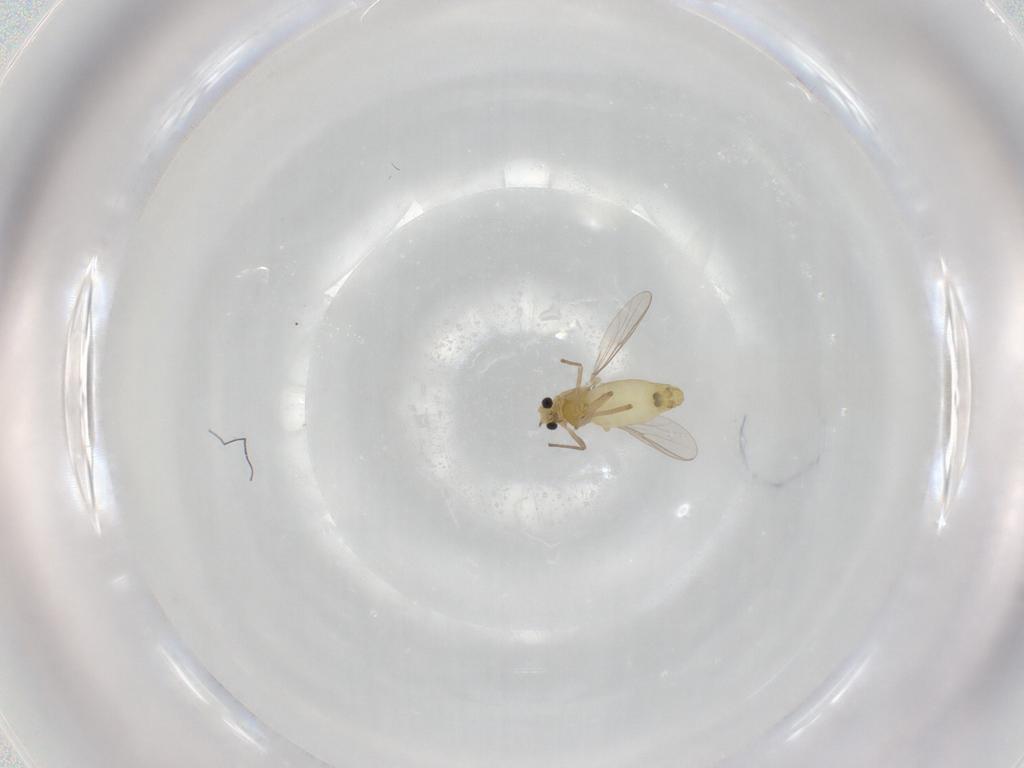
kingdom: Animalia
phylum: Arthropoda
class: Insecta
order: Diptera
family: Chironomidae
